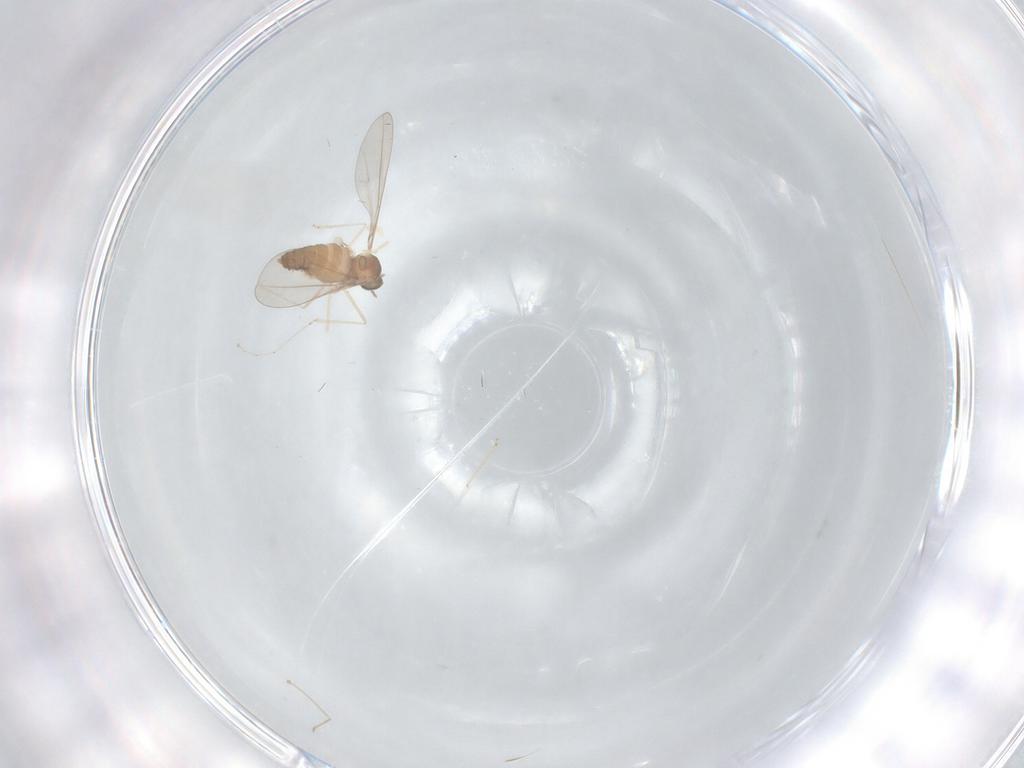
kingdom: Animalia
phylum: Arthropoda
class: Insecta
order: Diptera
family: Cecidomyiidae
